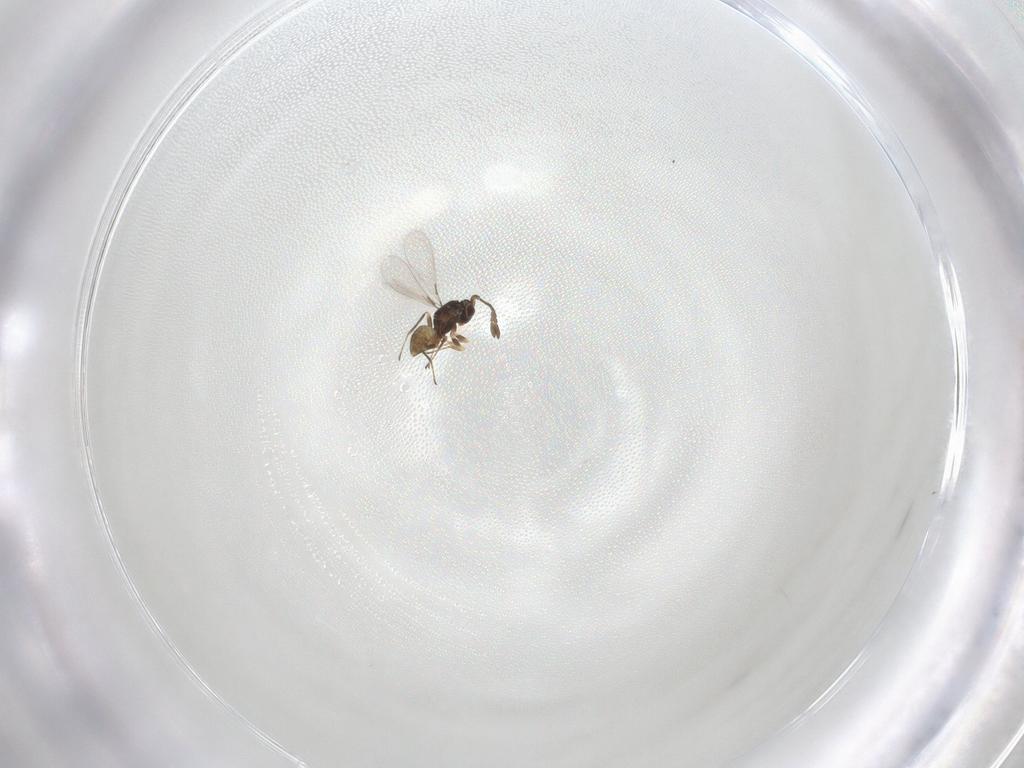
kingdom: Animalia
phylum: Arthropoda
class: Insecta
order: Hymenoptera
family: Mymaridae
